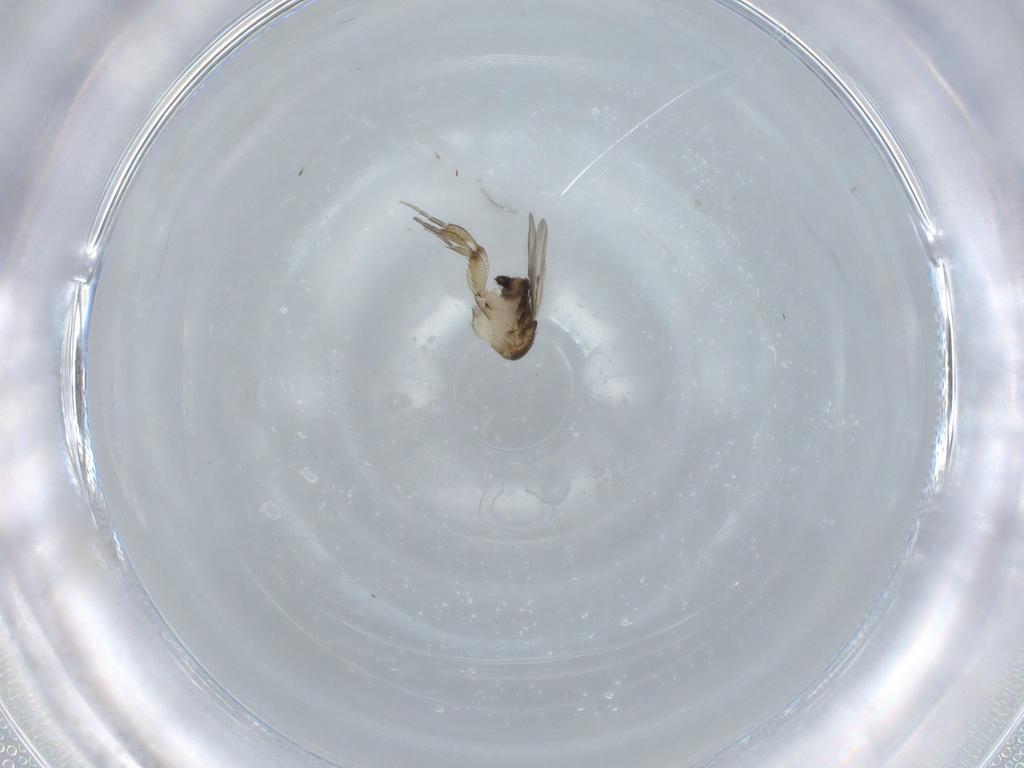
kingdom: Animalia
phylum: Arthropoda
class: Insecta
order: Diptera
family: Phoridae
